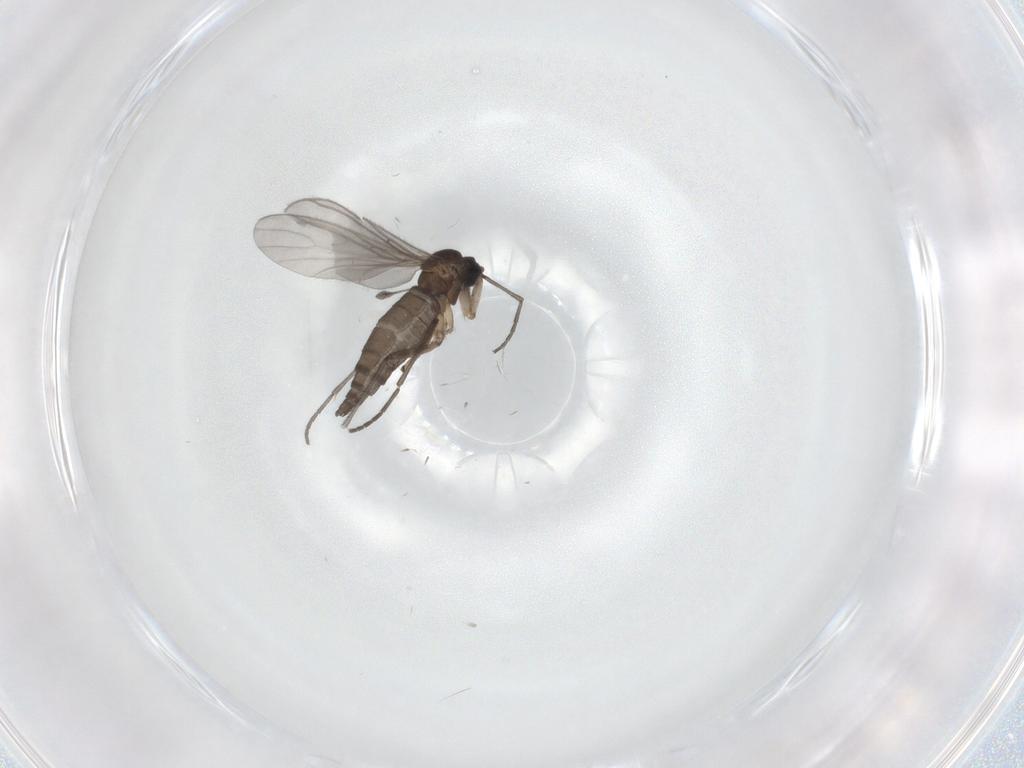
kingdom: Animalia
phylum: Arthropoda
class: Insecta
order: Diptera
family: Sciaridae
